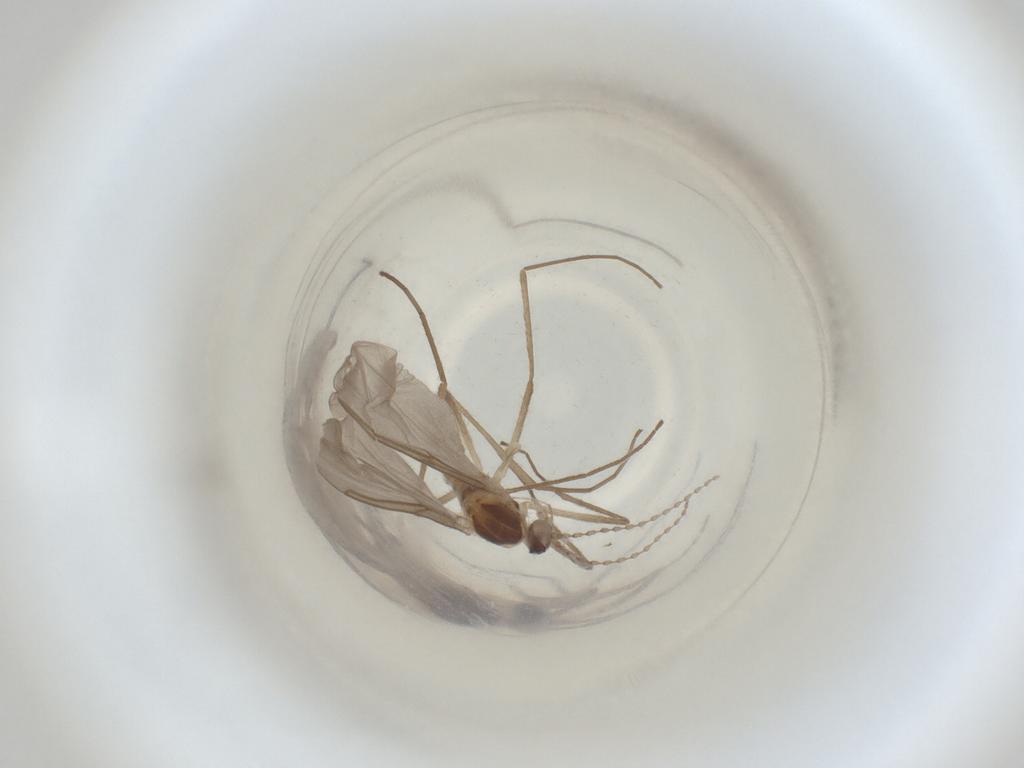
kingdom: Animalia
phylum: Arthropoda
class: Insecta
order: Diptera
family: Cecidomyiidae
